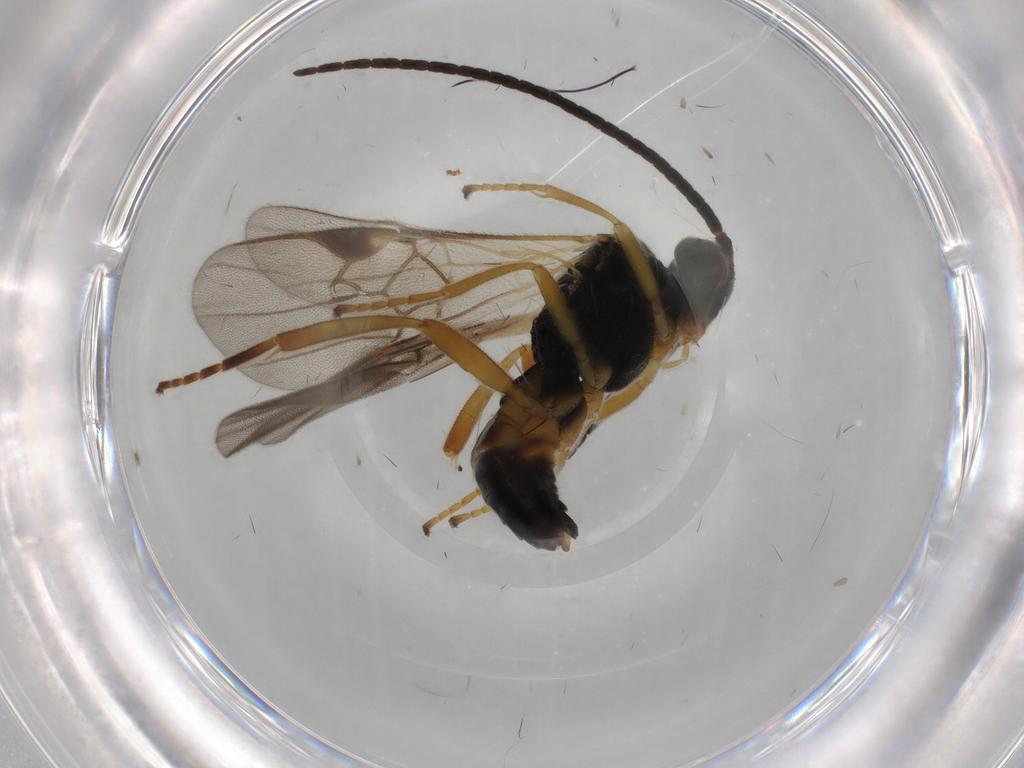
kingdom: Animalia
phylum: Arthropoda
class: Insecta
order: Hymenoptera
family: Braconidae
